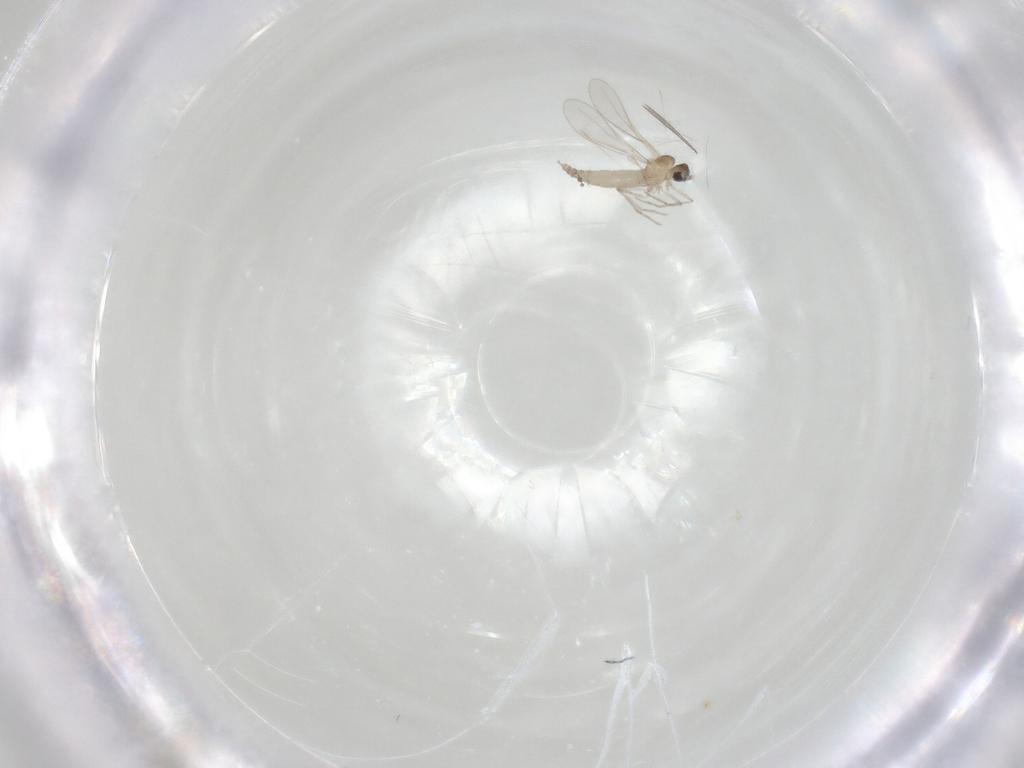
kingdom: Animalia
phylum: Arthropoda
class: Insecta
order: Diptera
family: Cecidomyiidae
